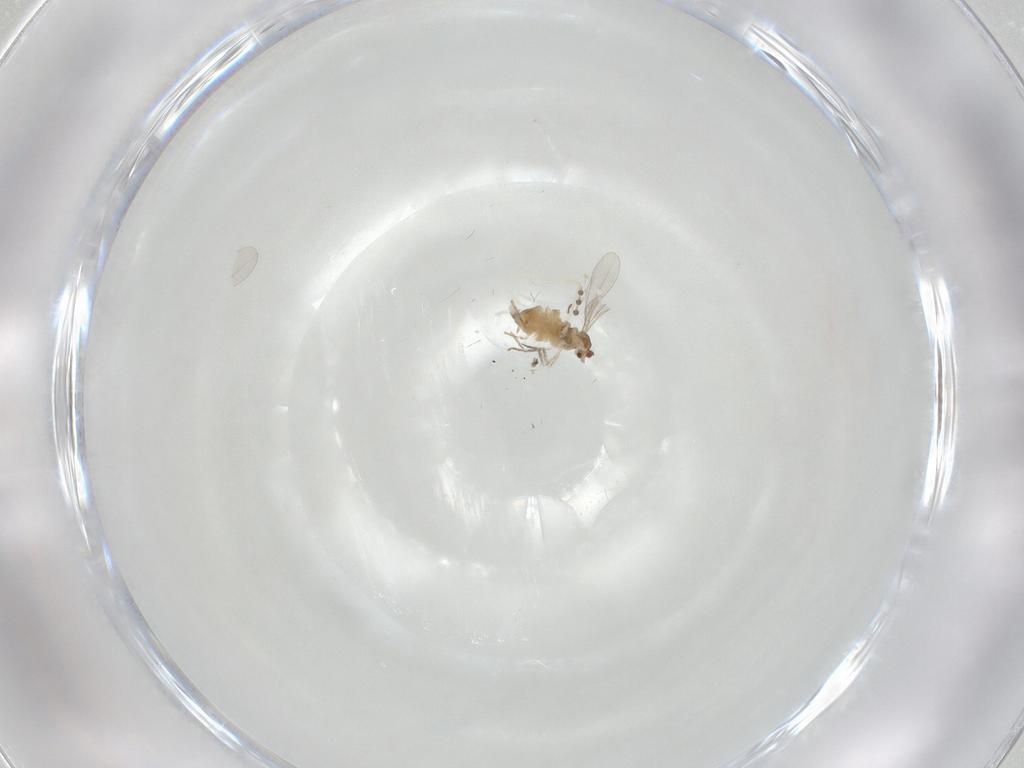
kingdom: Animalia
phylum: Arthropoda
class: Insecta
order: Diptera
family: Cecidomyiidae
